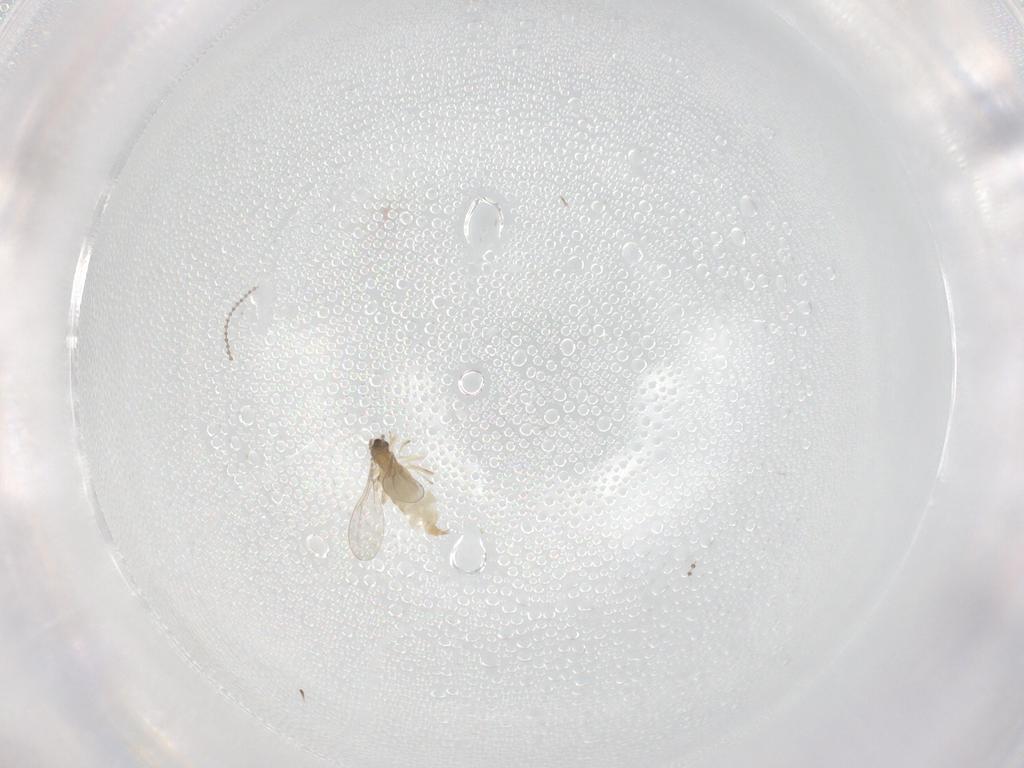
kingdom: Animalia
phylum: Arthropoda
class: Insecta
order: Diptera
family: Cecidomyiidae
